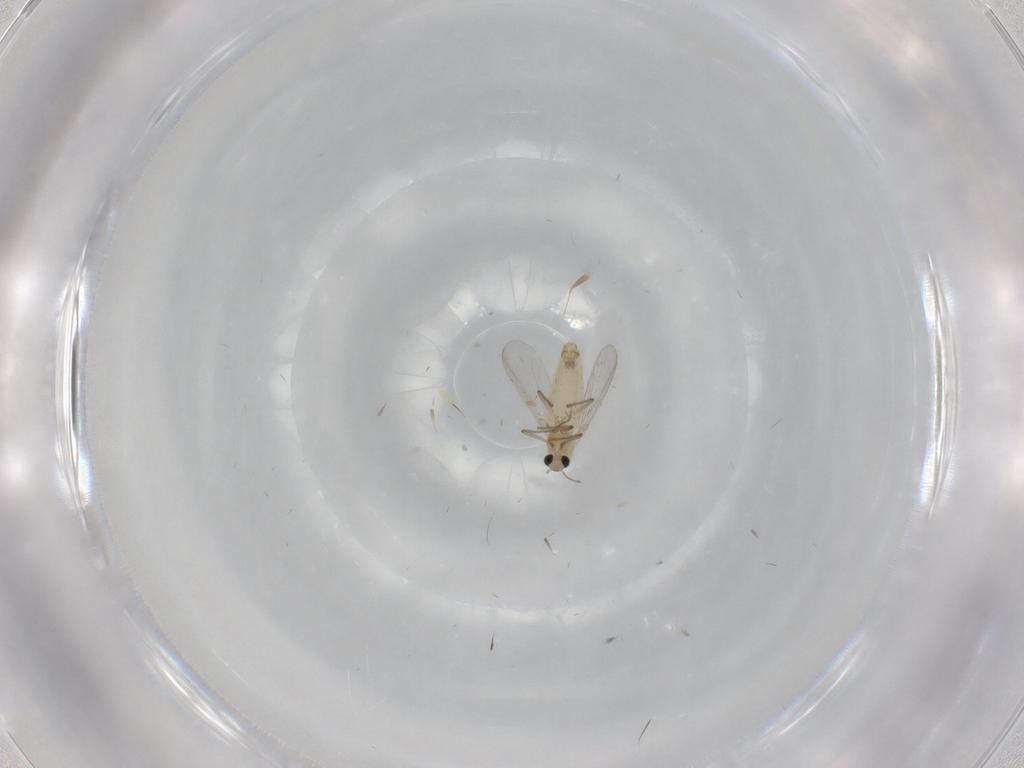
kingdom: Animalia
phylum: Arthropoda
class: Insecta
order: Diptera
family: Chironomidae
